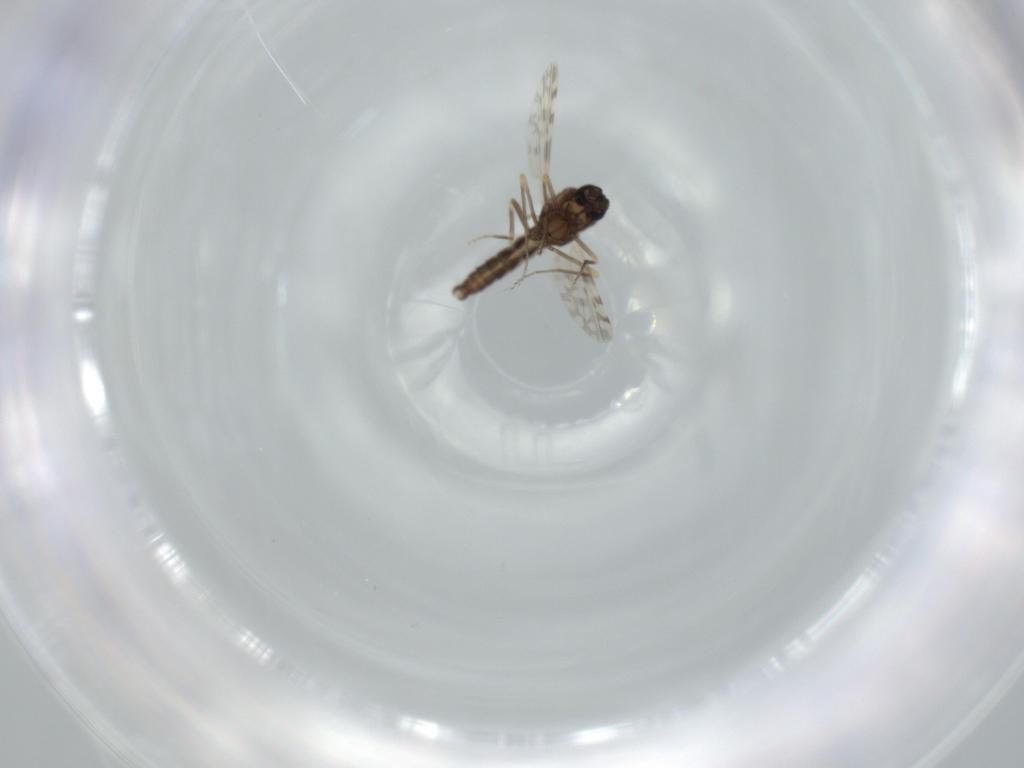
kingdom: Animalia
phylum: Arthropoda
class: Insecta
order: Diptera
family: Ceratopogonidae
